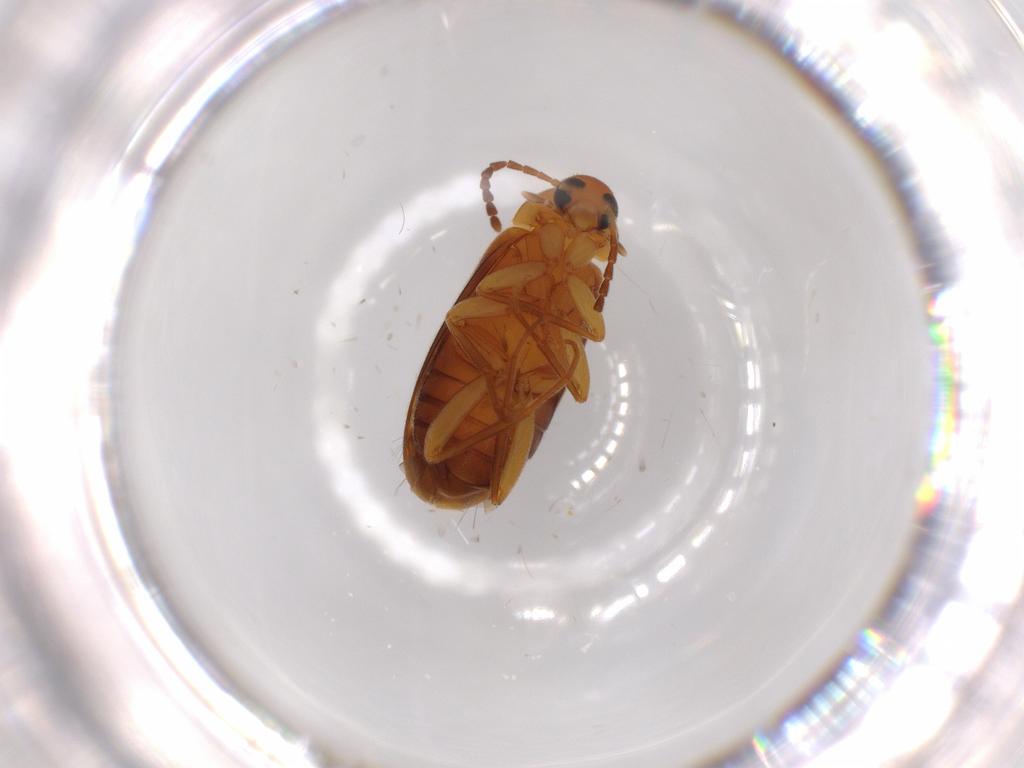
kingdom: Animalia
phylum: Arthropoda
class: Insecta
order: Coleoptera
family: Scraptiidae
